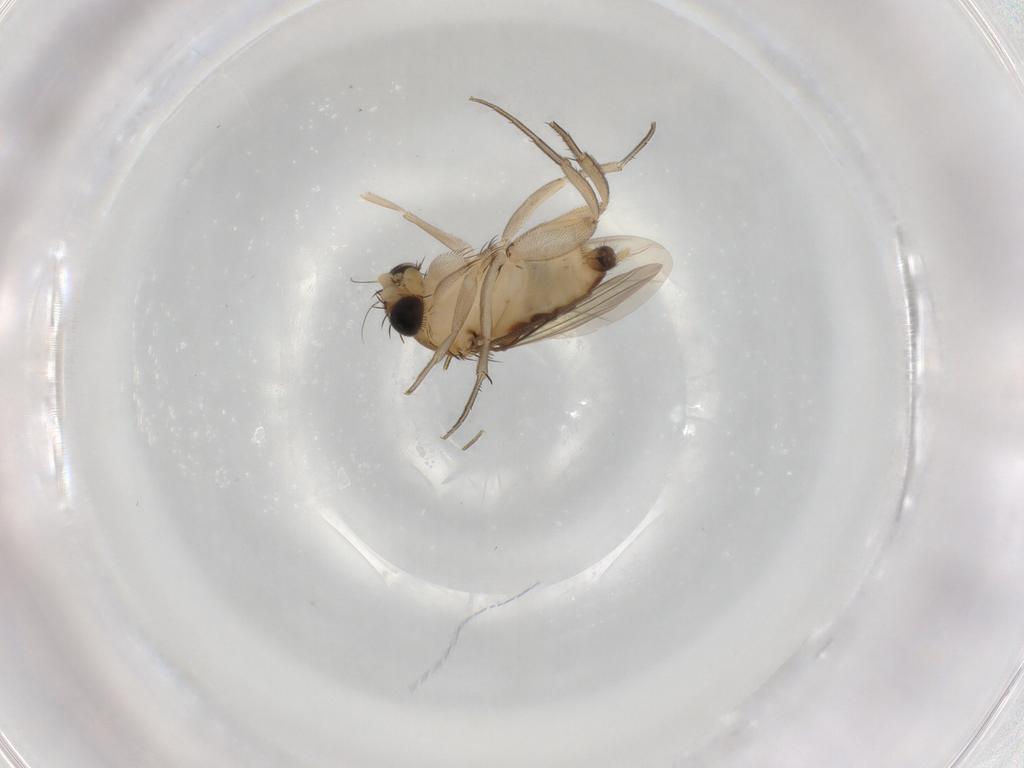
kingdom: Animalia
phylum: Arthropoda
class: Insecta
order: Diptera
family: Phoridae
